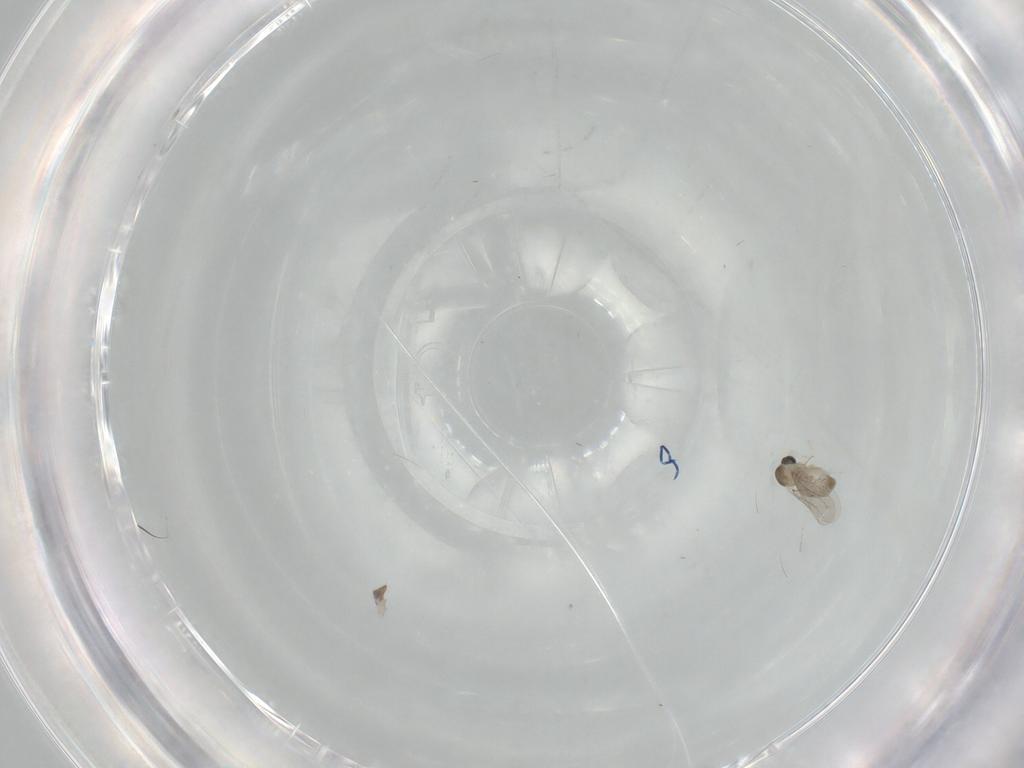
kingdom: Animalia
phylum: Arthropoda
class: Insecta
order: Diptera
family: Cecidomyiidae
